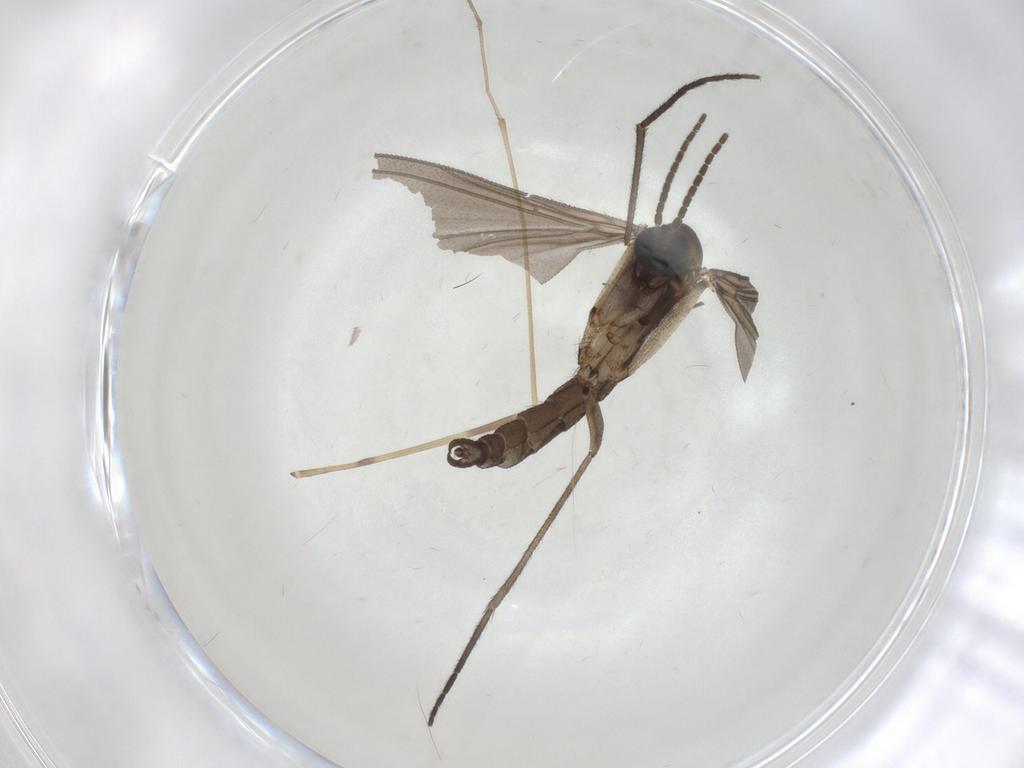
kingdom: Animalia
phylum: Arthropoda
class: Insecta
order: Diptera
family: Sciaridae
